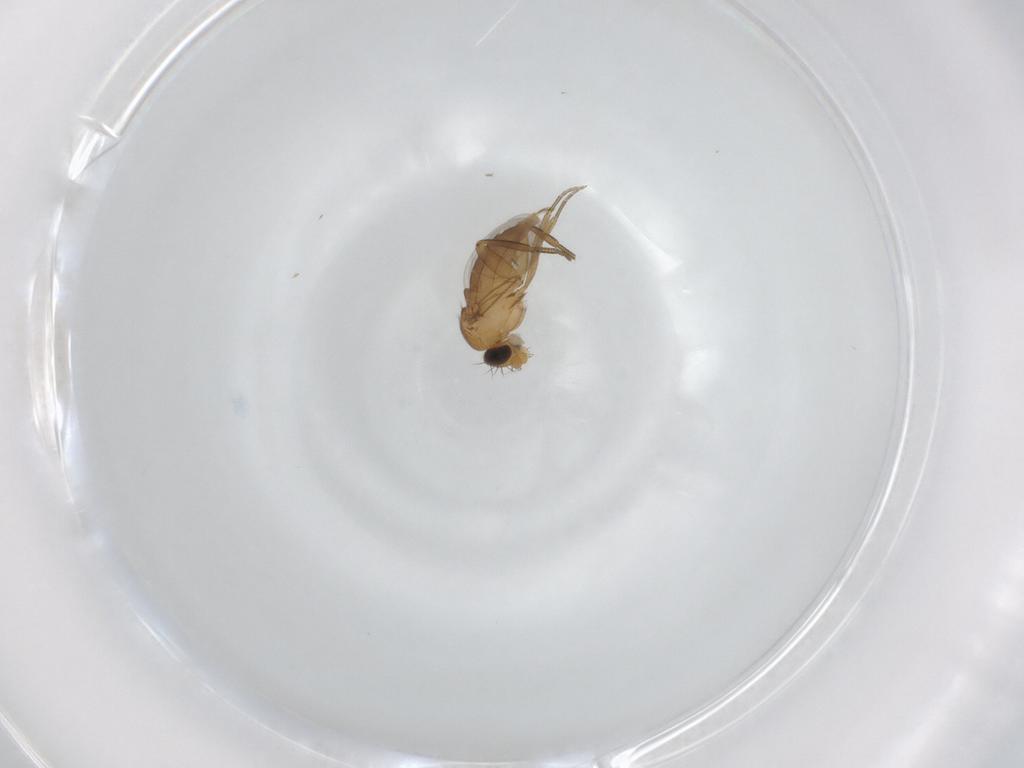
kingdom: Animalia
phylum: Arthropoda
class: Insecta
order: Diptera
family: Phoridae
